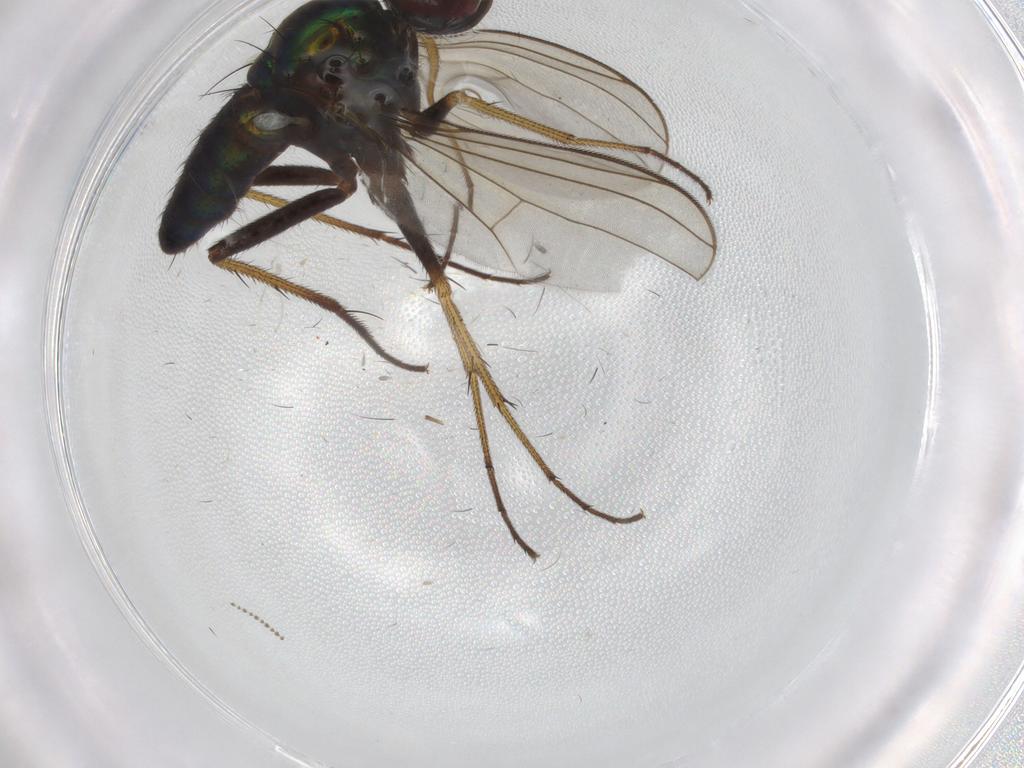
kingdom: Animalia
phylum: Arthropoda
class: Insecta
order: Diptera
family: Dolichopodidae
